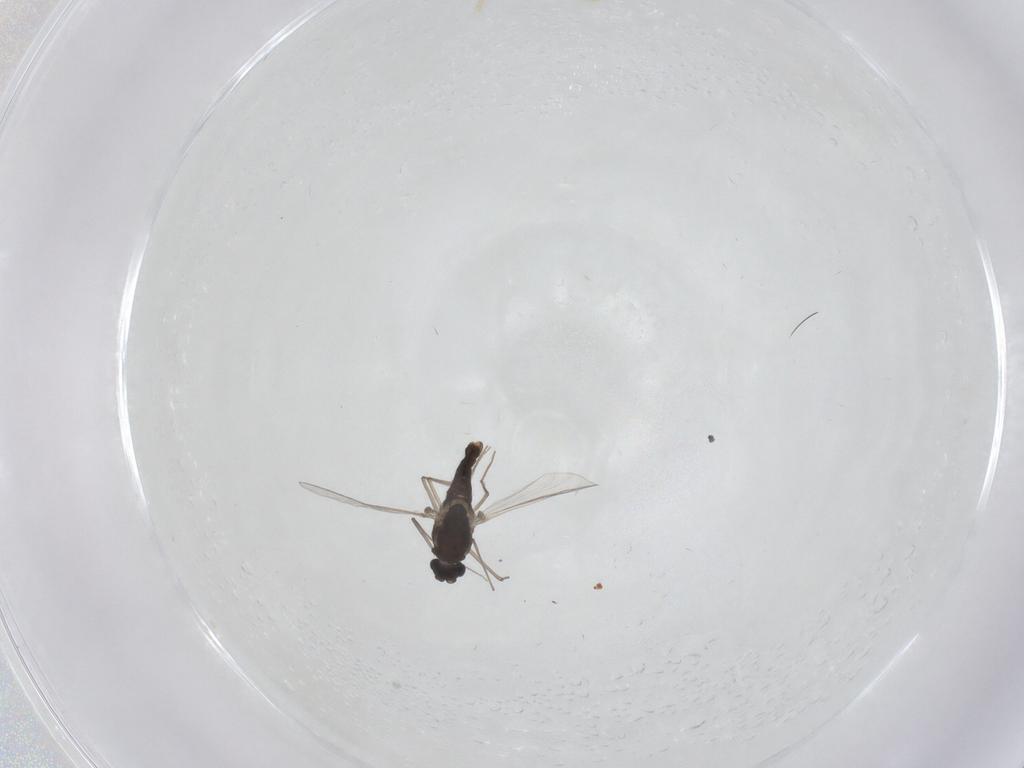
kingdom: Animalia
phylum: Arthropoda
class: Insecta
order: Diptera
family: Chironomidae
